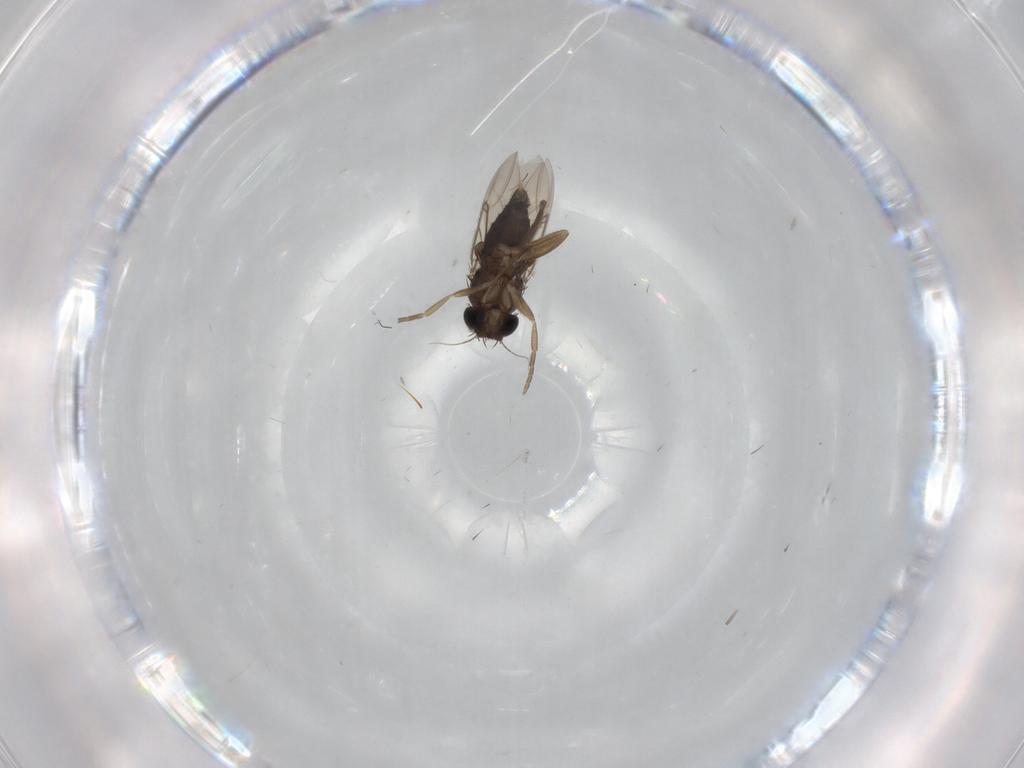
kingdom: Animalia
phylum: Arthropoda
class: Insecta
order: Diptera
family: Phoridae
